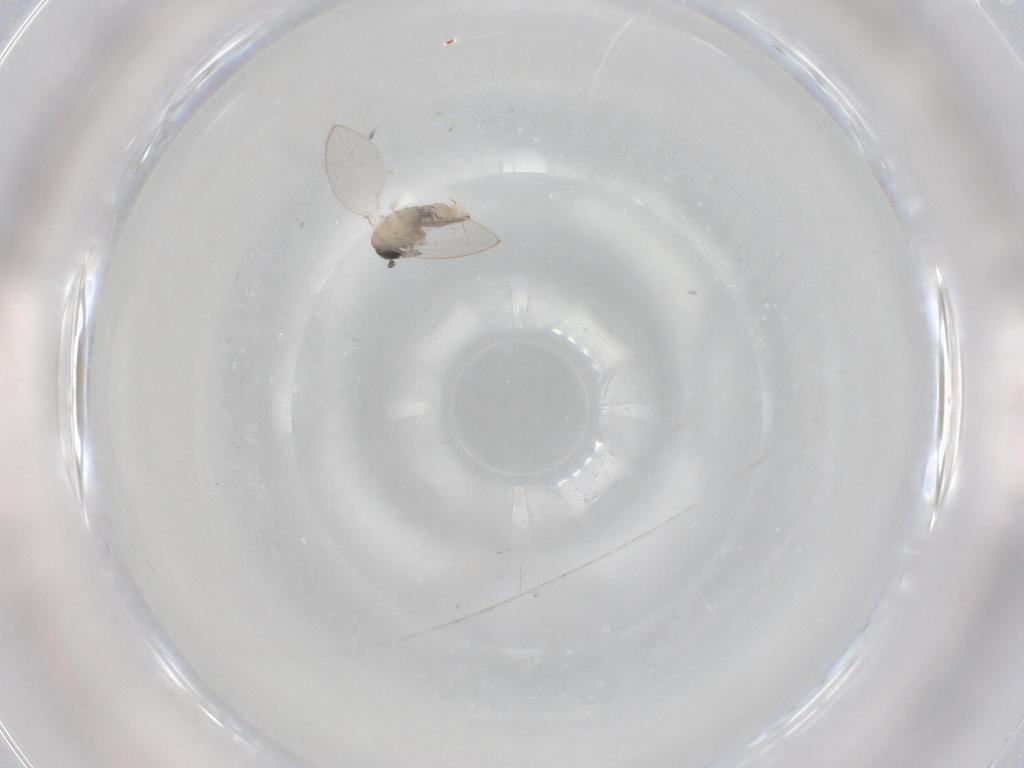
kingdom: Animalia
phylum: Arthropoda
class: Insecta
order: Diptera
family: Psychodidae
